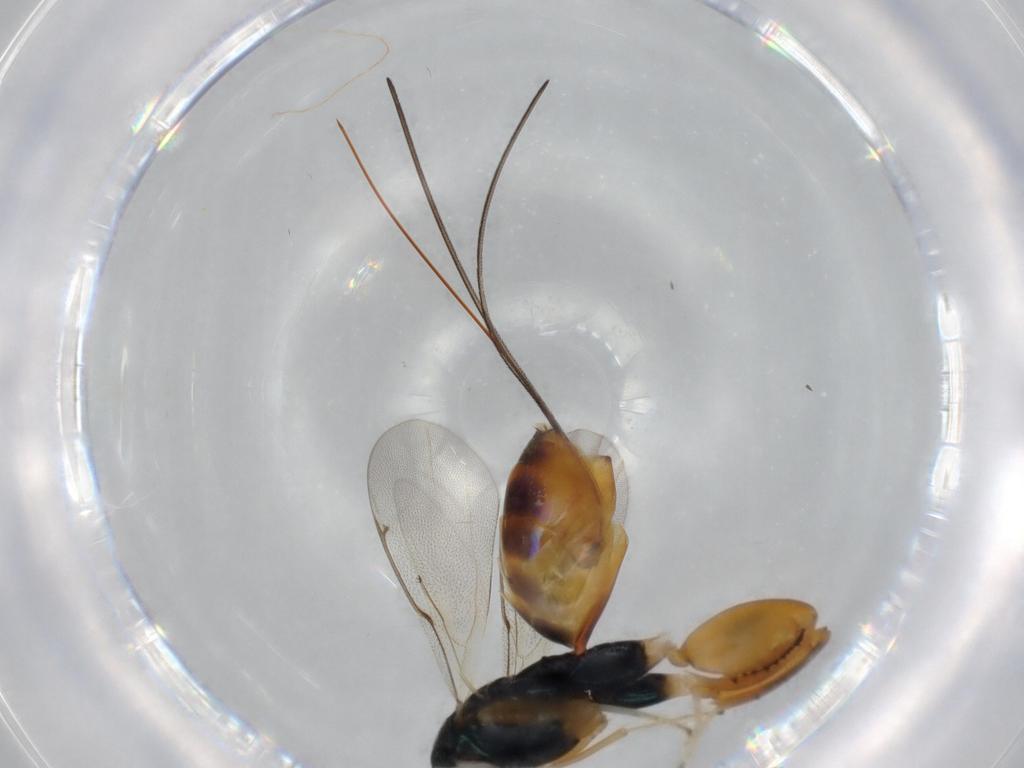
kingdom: Animalia
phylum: Arthropoda
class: Insecta
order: Hymenoptera
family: Torymidae
